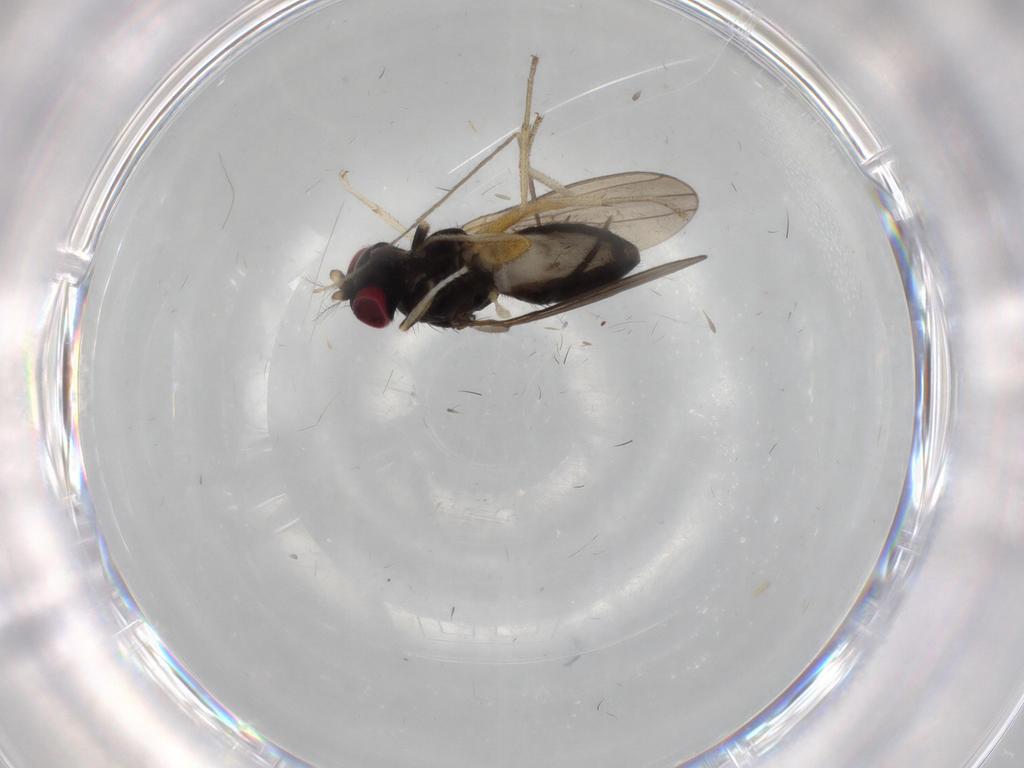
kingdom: Animalia
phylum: Arthropoda
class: Insecta
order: Diptera
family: Limoniidae
